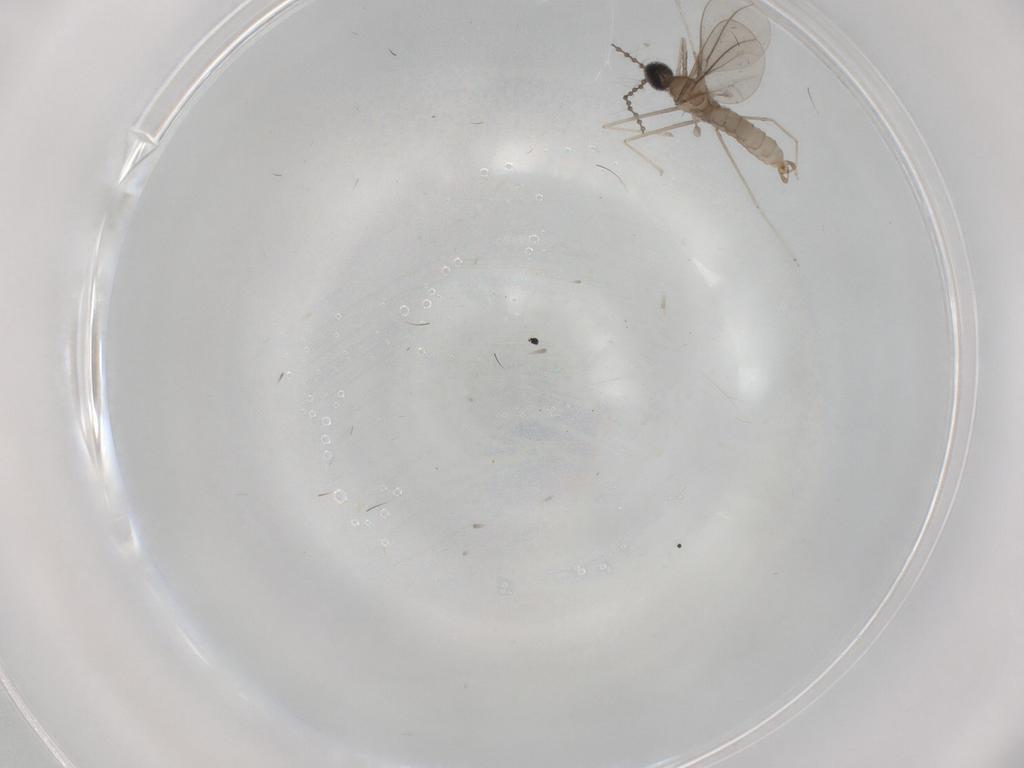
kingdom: Animalia
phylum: Arthropoda
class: Insecta
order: Diptera
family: Cecidomyiidae
